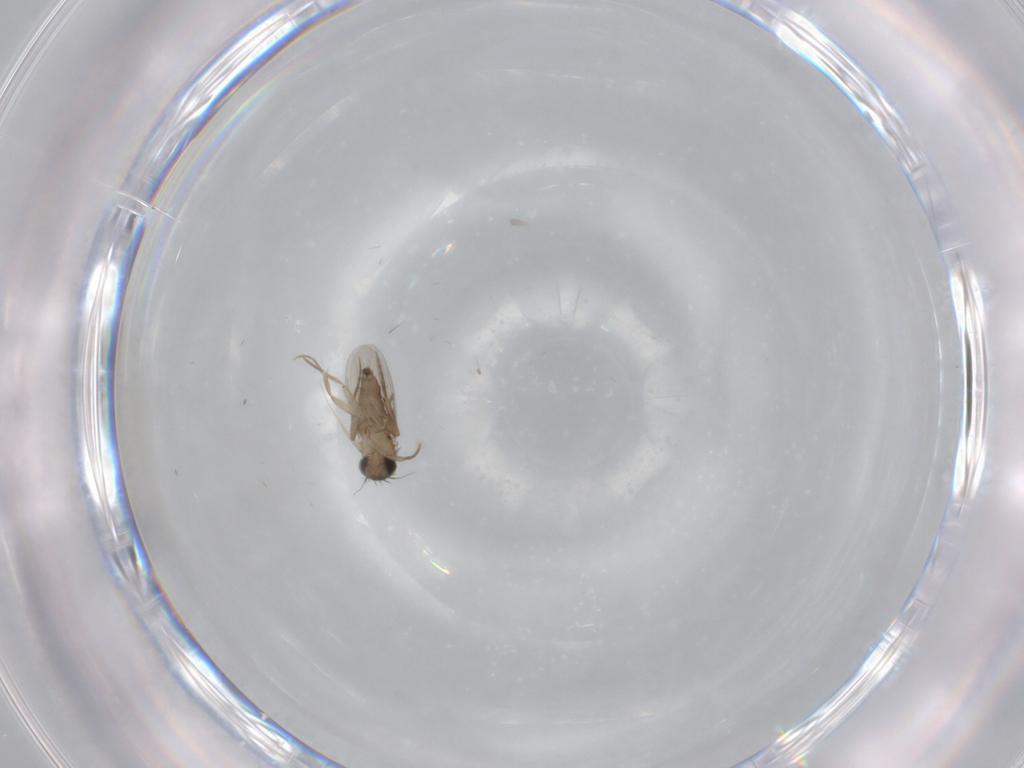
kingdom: Animalia
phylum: Arthropoda
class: Insecta
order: Diptera
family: Phoridae
